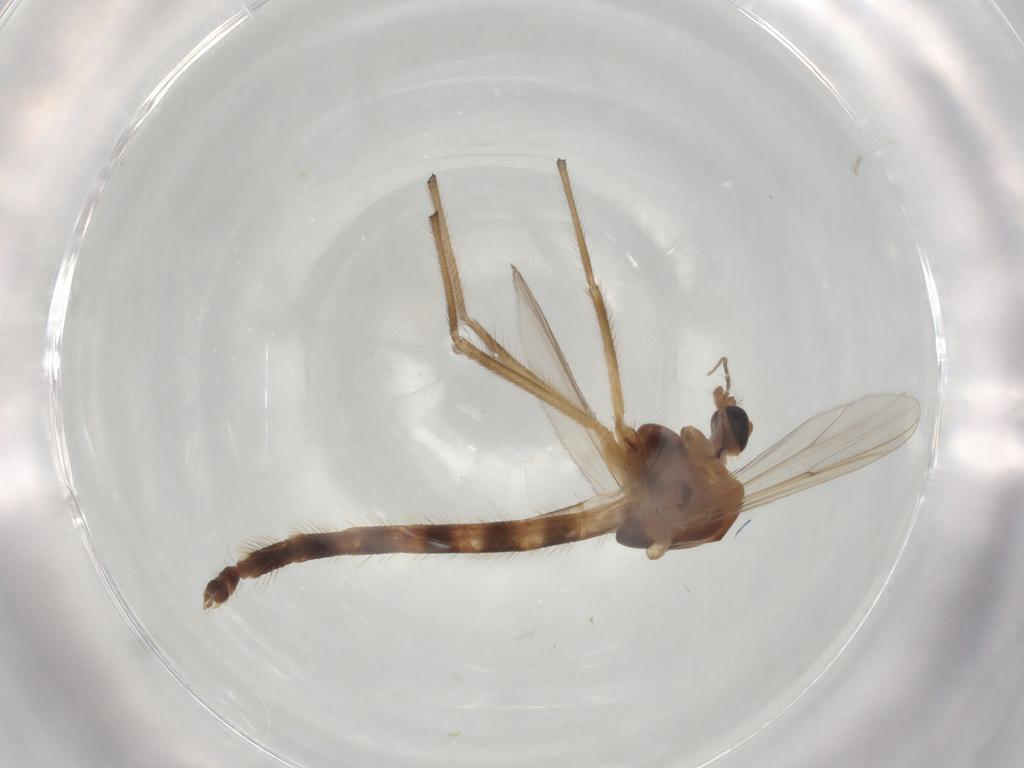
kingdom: Animalia
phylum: Arthropoda
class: Insecta
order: Diptera
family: Chironomidae
